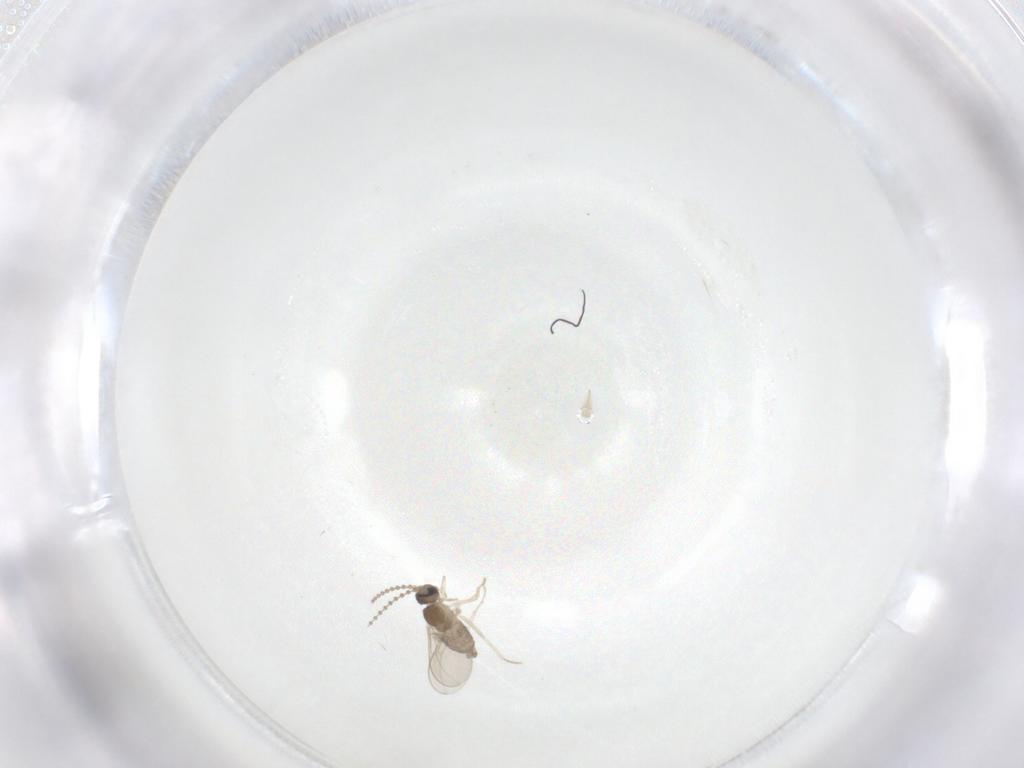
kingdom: Animalia
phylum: Arthropoda
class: Insecta
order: Diptera
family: Cecidomyiidae
